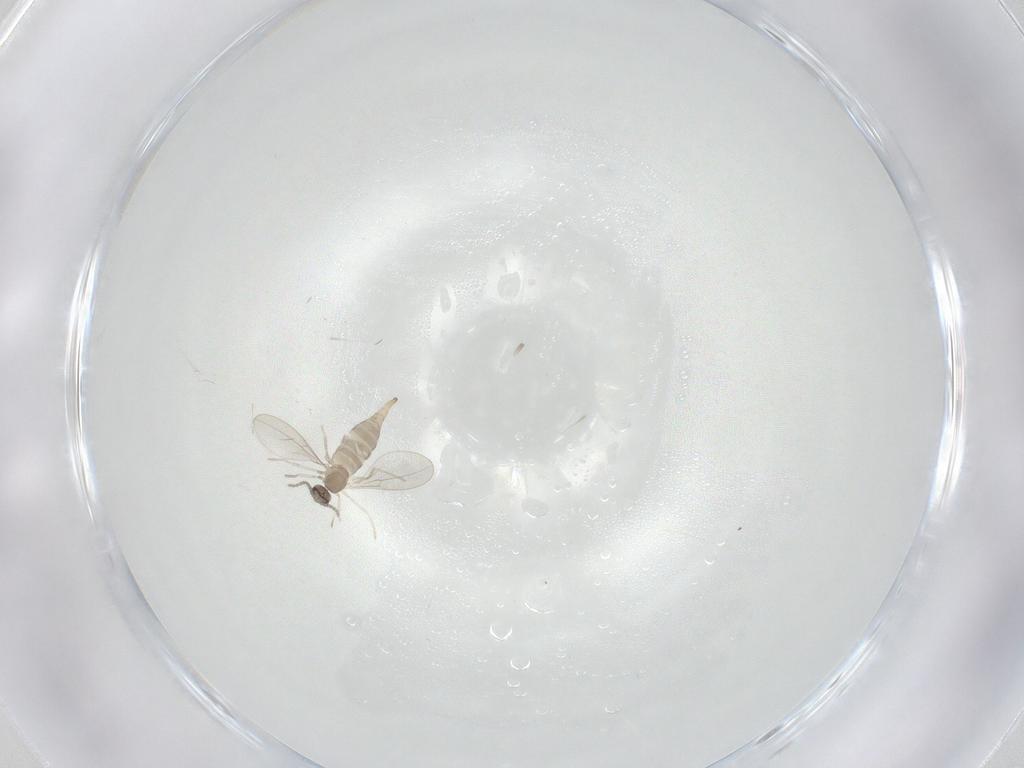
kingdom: Animalia
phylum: Arthropoda
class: Insecta
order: Diptera
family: Cecidomyiidae
